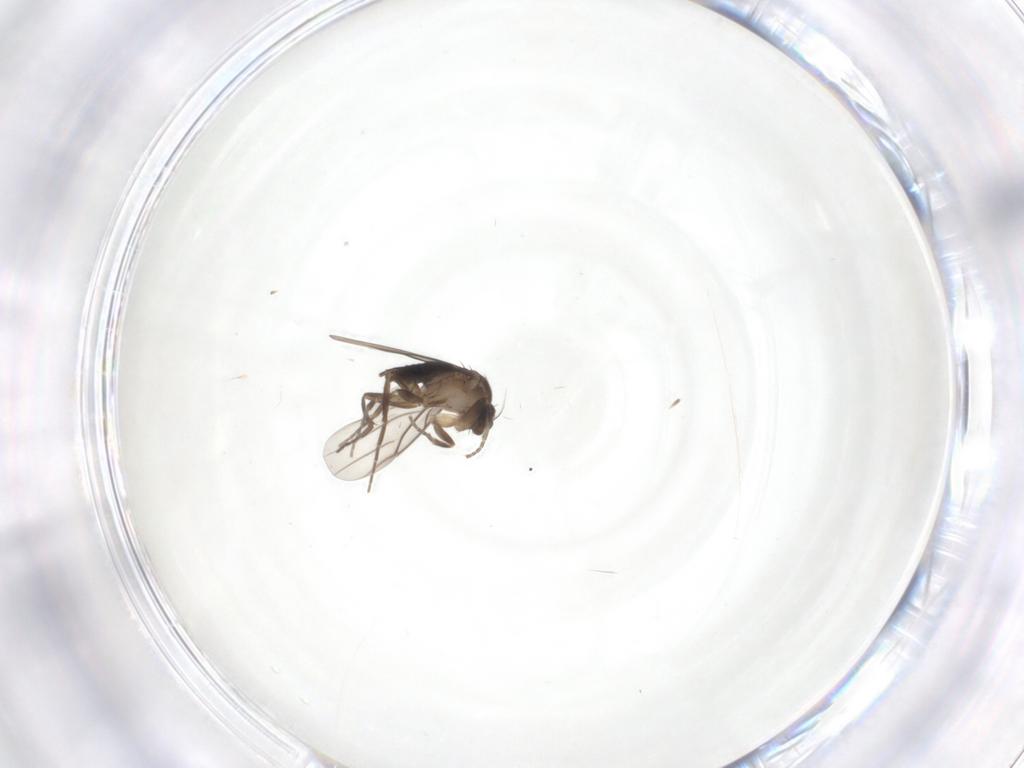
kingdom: Animalia
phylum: Arthropoda
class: Insecta
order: Diptera
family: Phoridae
